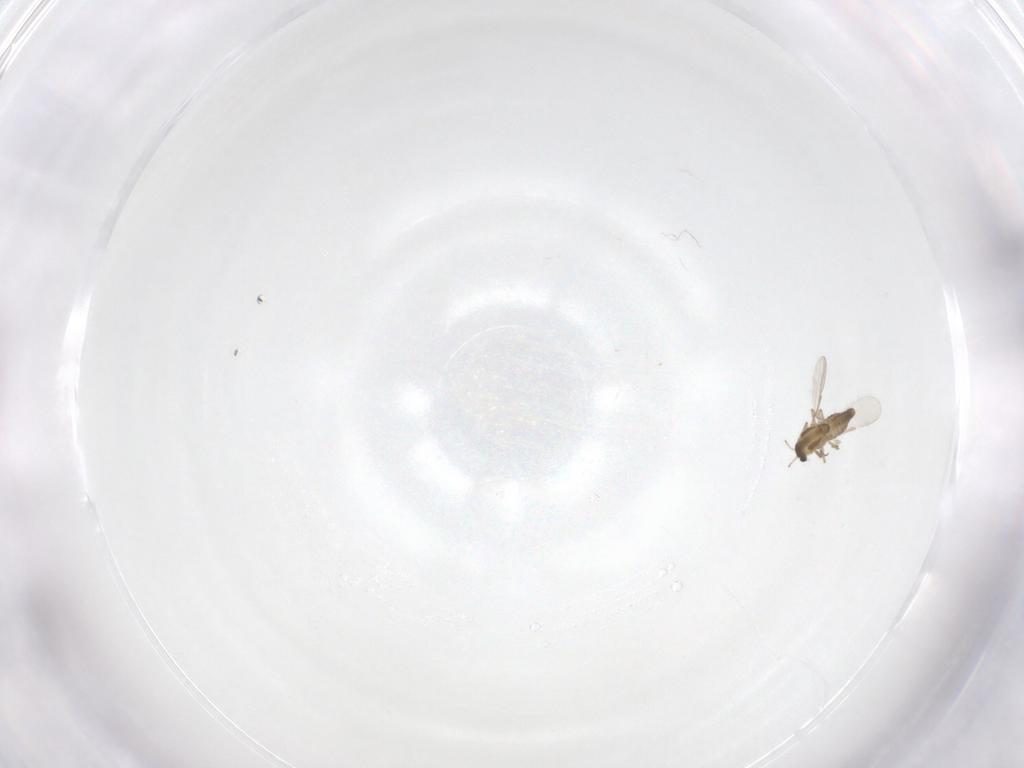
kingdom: Animalia
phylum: Arthropoda
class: Insecta
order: Diptera
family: Chironomidae
